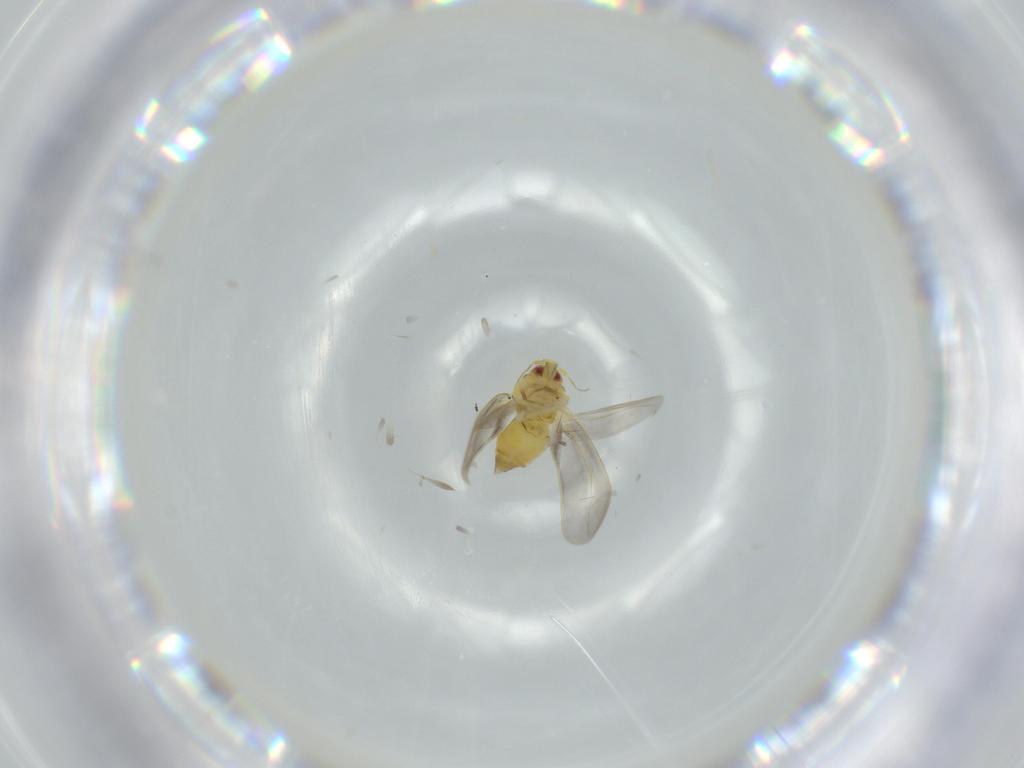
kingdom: Animalia
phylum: Arthropoda
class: Insecta
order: Hemiptera
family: Aleyrodidae
